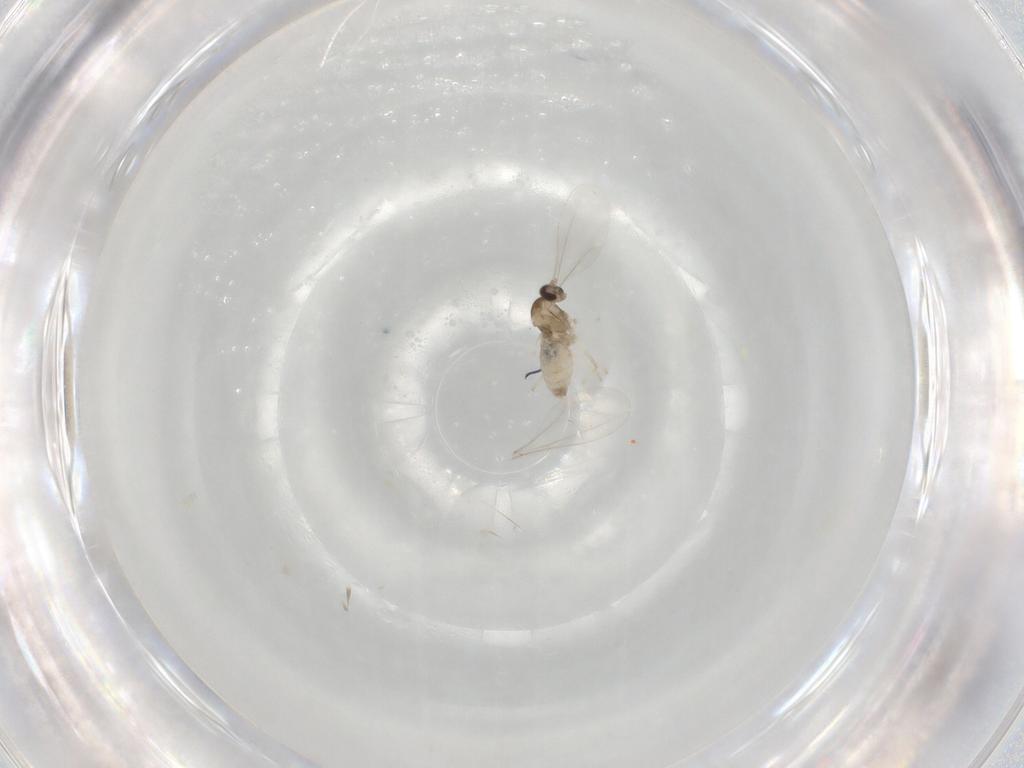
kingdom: Animalia
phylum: Arthropoda
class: Insecta
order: Diptera
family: Cecidomyiidae
